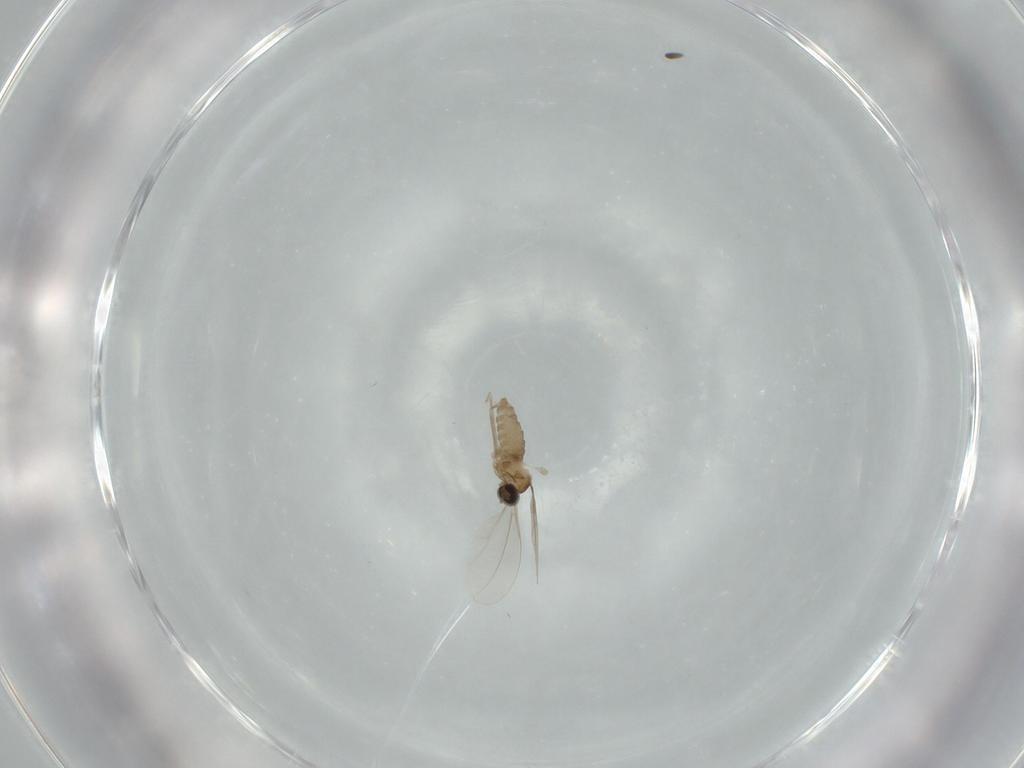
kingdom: Animalia
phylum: Arthropoda
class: Insecta
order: Diptera
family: Cecidomyiidae
